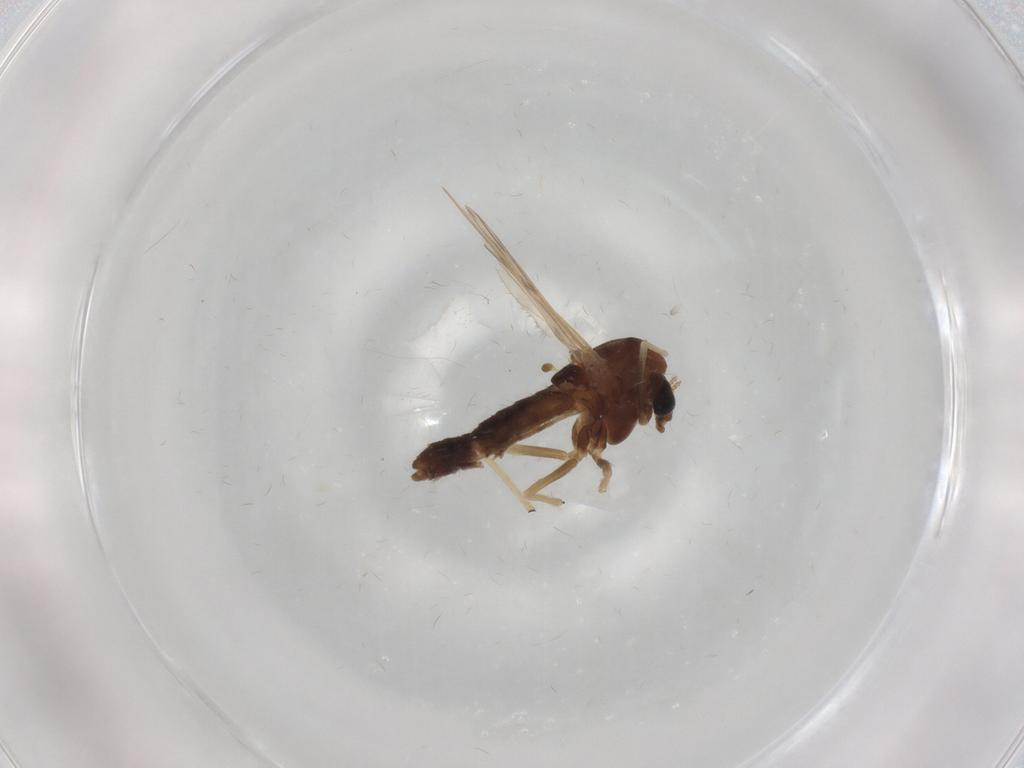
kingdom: Animalia
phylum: Arthropoda
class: Insecta
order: Diptera
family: Chironomidae
